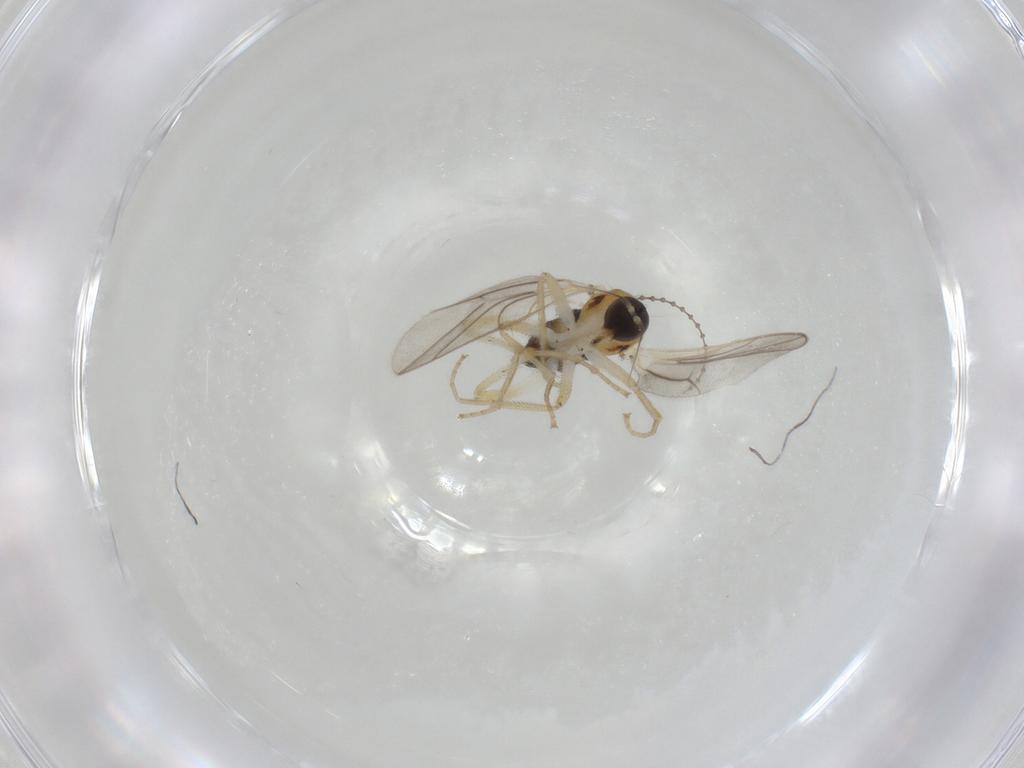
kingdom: Animalia
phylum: Arthropoda
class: Insecta
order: Diptera
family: Hybotidae
